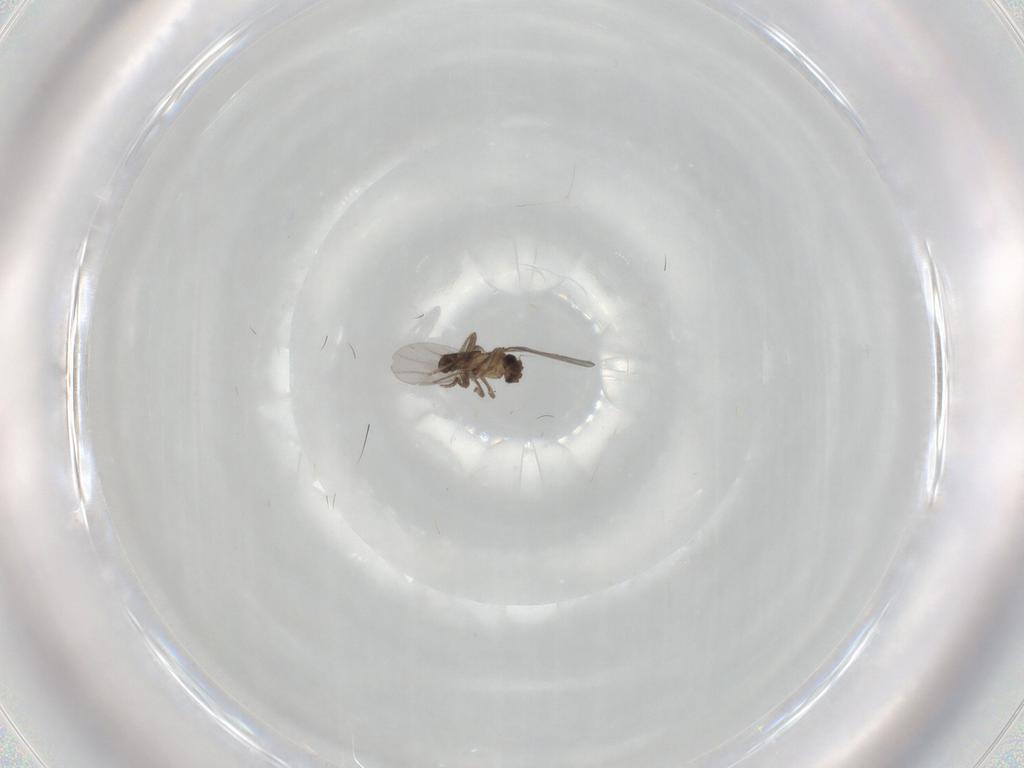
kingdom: Animalia
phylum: Arthropoda
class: Insecta
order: Diptera
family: Tabanidae
